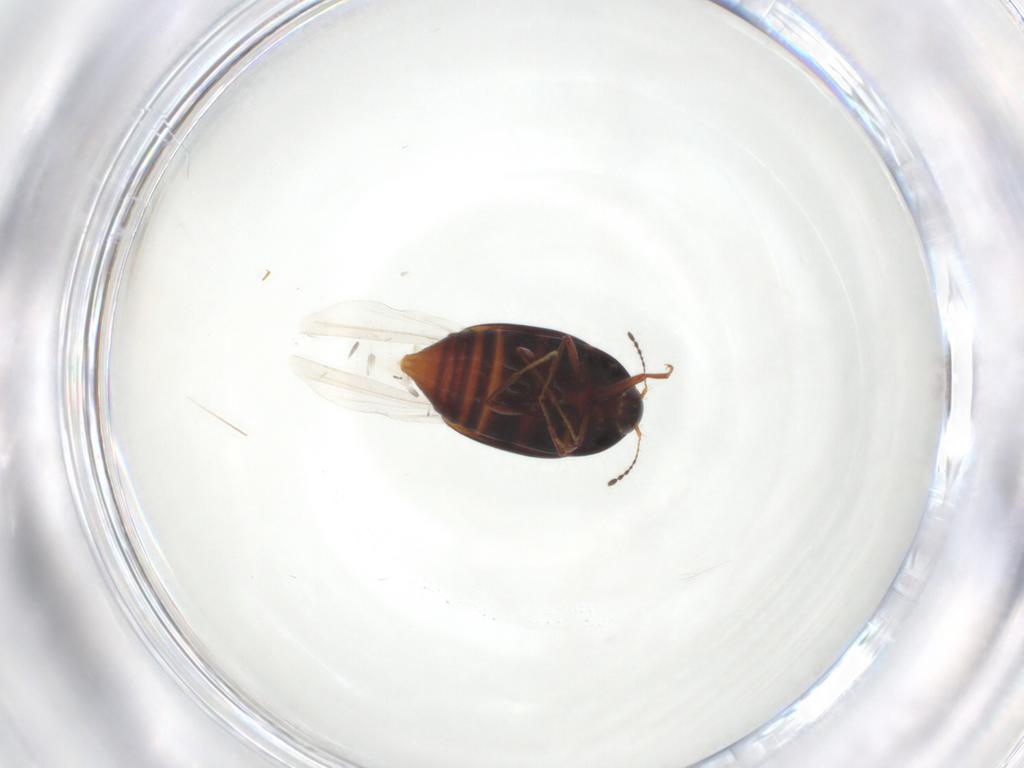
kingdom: Animalia
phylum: Arthropoda
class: Insecta
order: Coleoptera
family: Staphylinidae
